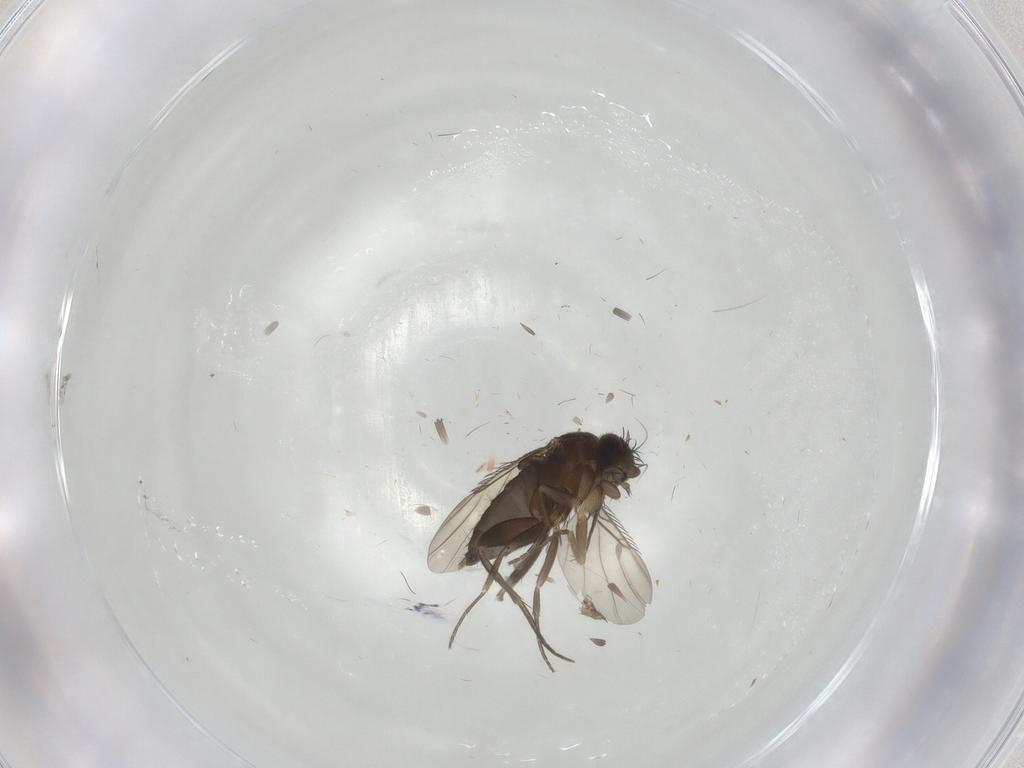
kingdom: Animalia
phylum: Arthropoda
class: Insecta
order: Diptera
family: Phoridae
